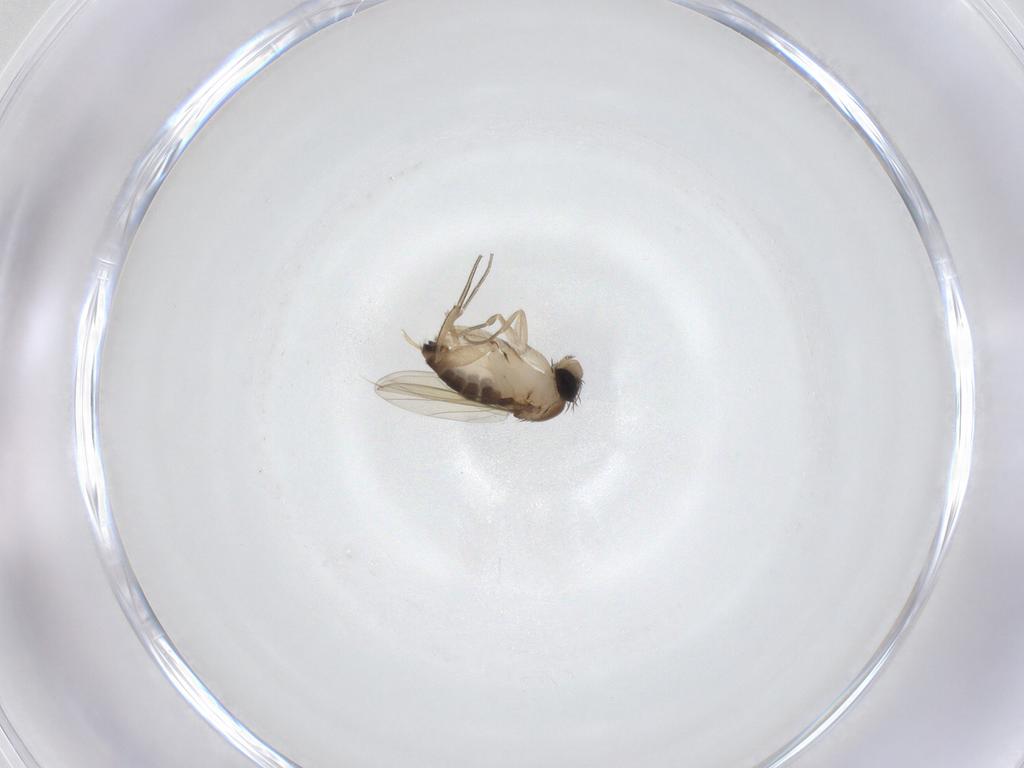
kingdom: Animalia
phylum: Arthropoda
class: Insecta
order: Diptera
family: Phoridae
